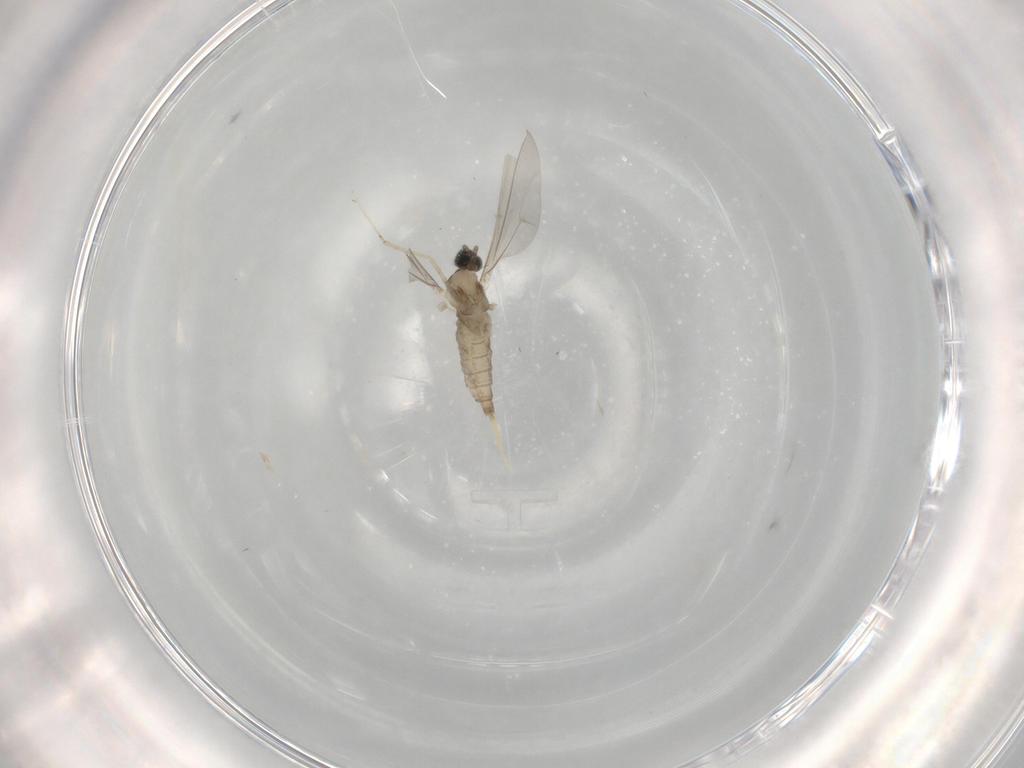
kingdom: Animalia
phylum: Arthropoda
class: Insecta
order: Diptera
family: Cecidomyiidae
